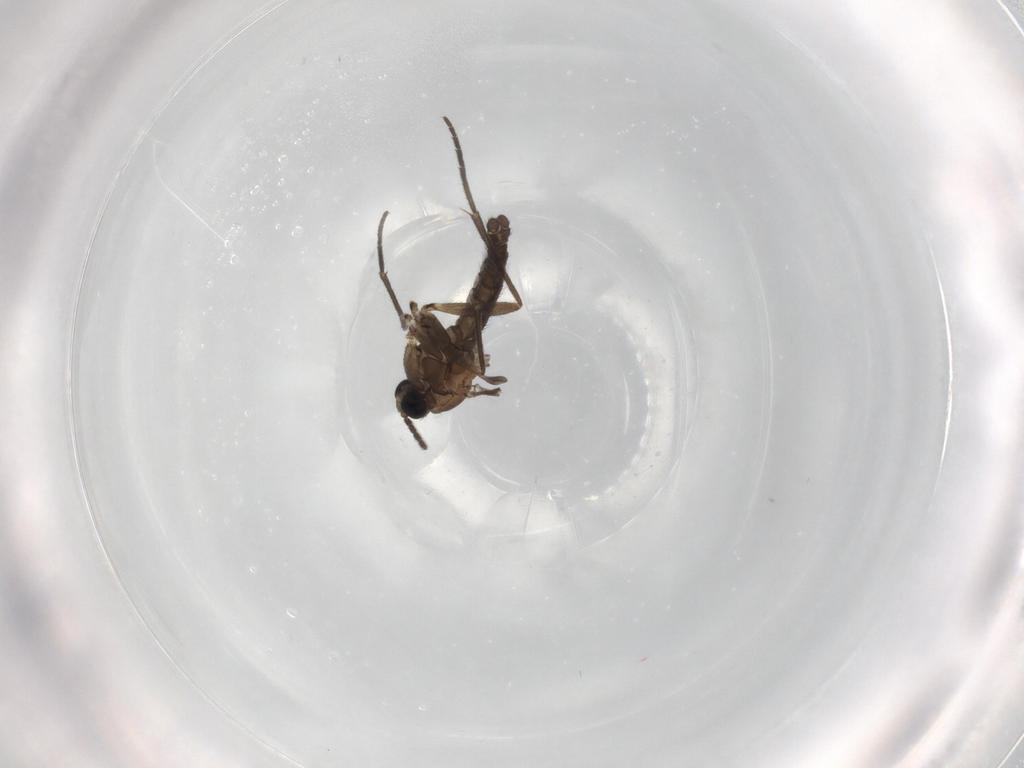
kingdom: Animalia
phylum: Arthropoda
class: Insecta
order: Diptera
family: Sciaridae
